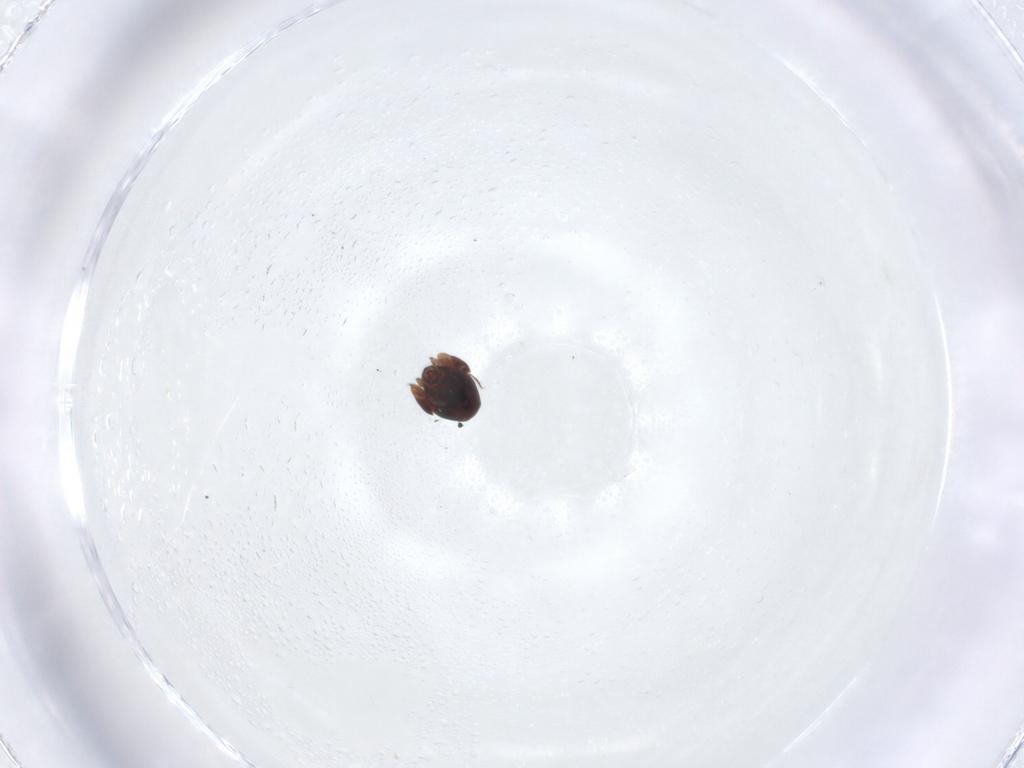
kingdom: Animalia
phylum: Arthropoda
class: Arachnida
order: Sarcoptiformes
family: Galumnidae
